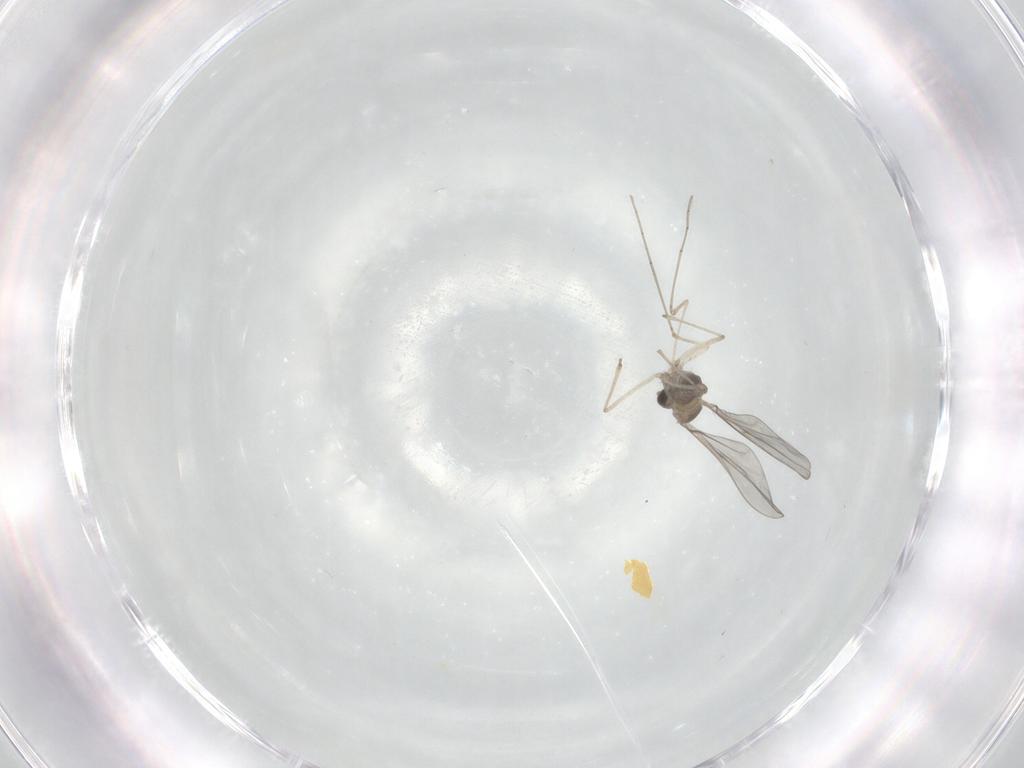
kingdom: Animalia
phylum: Arthropoda
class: Insecta
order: Diptera
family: Cecidomyiidae
